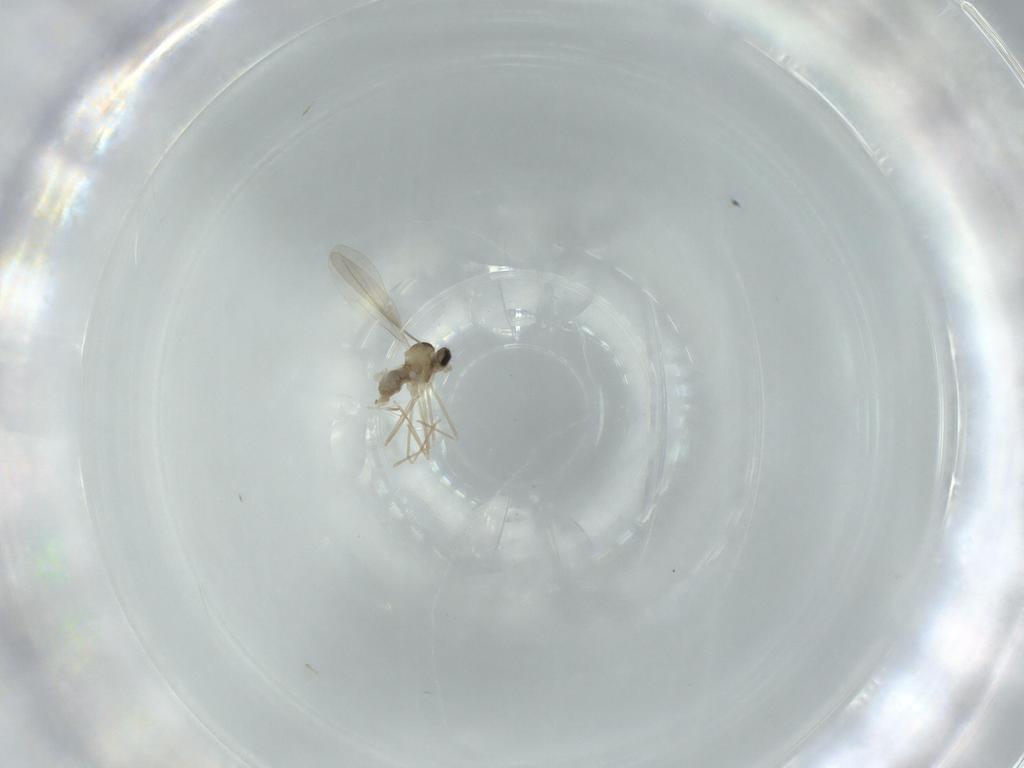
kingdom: Animalia
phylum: Arthropoda
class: Insecta
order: Diptera
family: Cecidomyiidae
